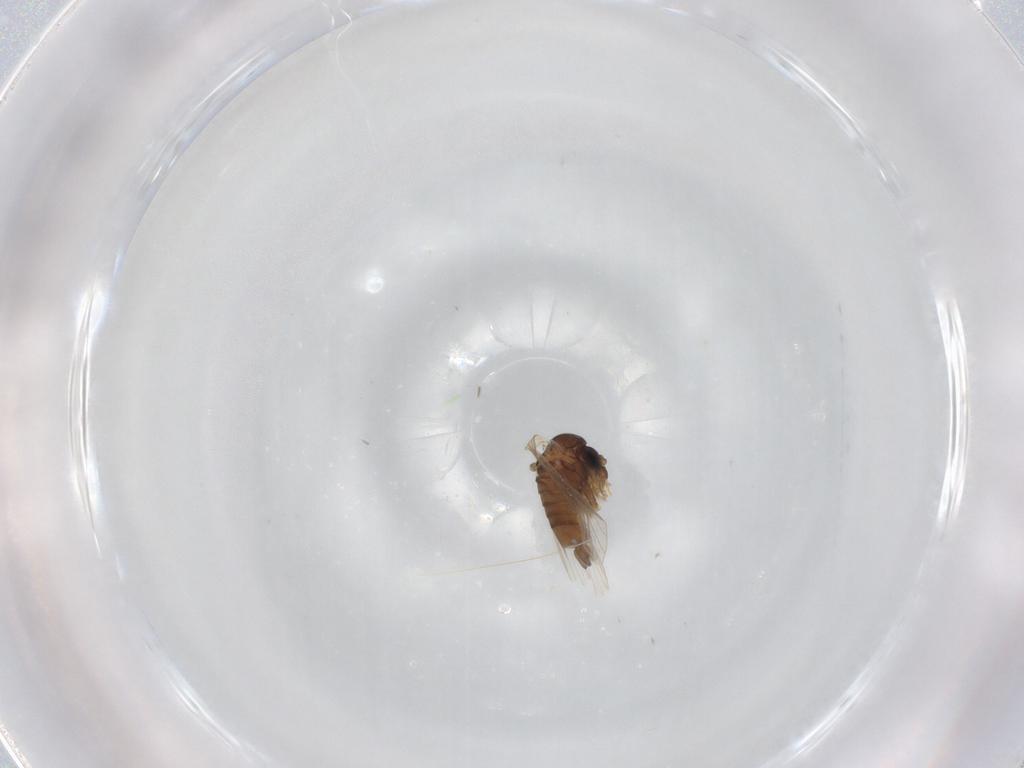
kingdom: Animalia
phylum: Arthropoda
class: Insecta
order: Diptera
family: Psychodidae
